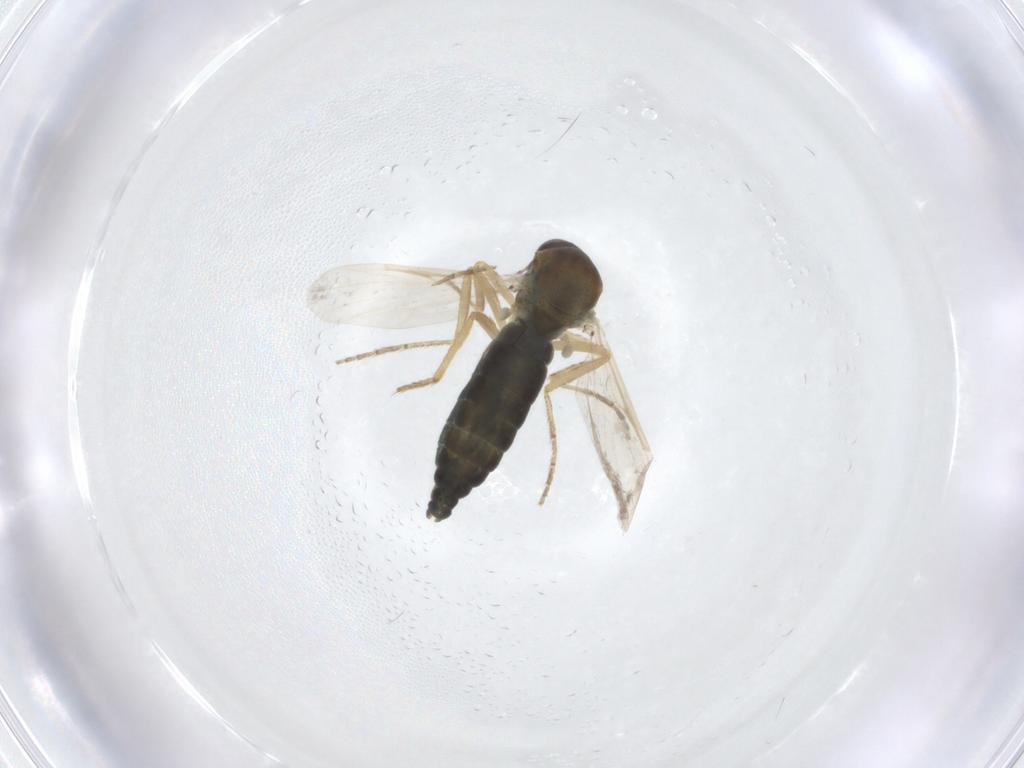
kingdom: Animalia
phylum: Arthropoda
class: Insecta
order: Diptera
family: Ceratopogonidae
